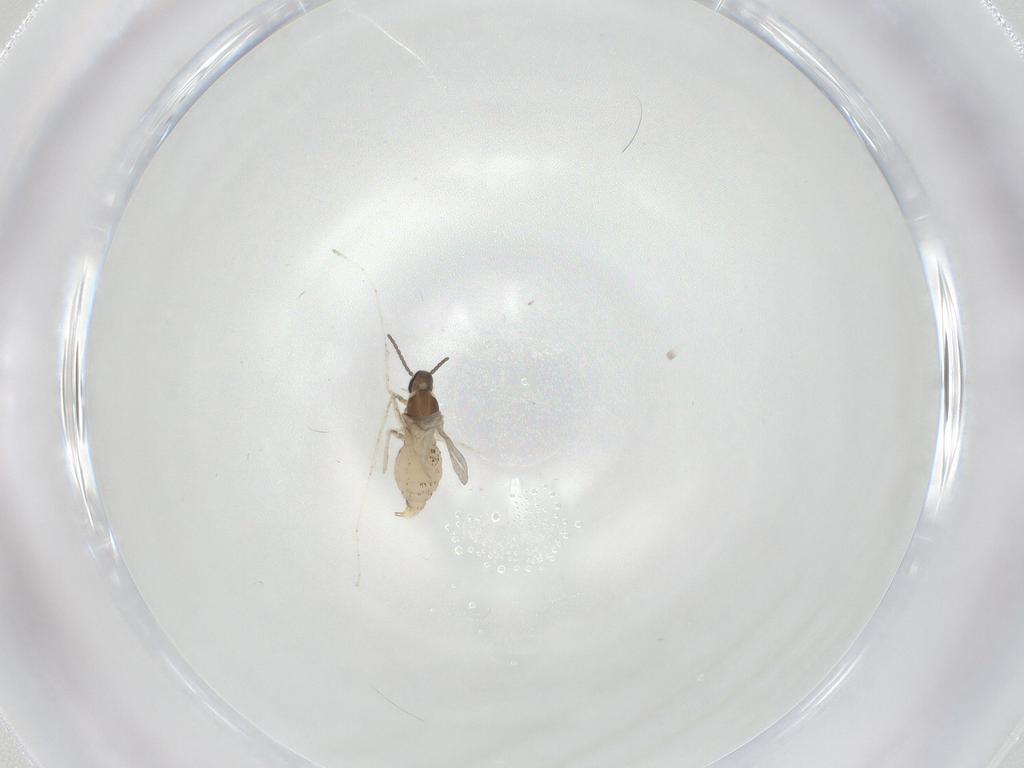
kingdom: Animalia
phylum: Arthropoda
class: Insecta
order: Diptera
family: Cecidomyiidae
